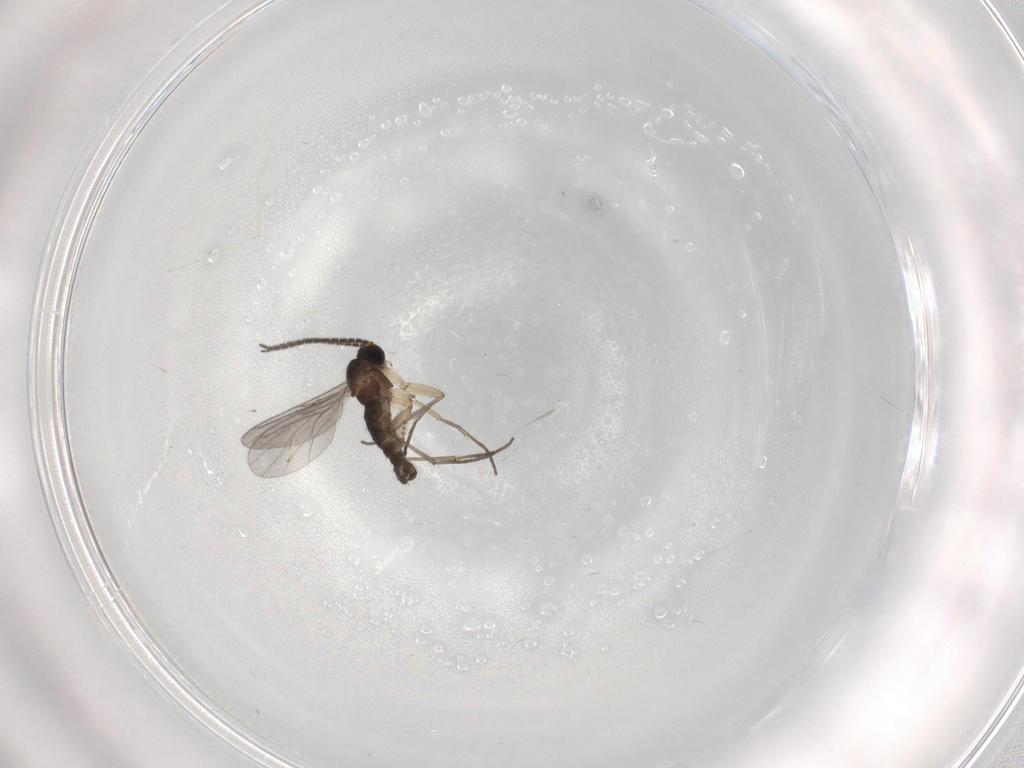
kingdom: Animalia
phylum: Arthropoda
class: Insecta
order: Diptera
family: Sciaridae
